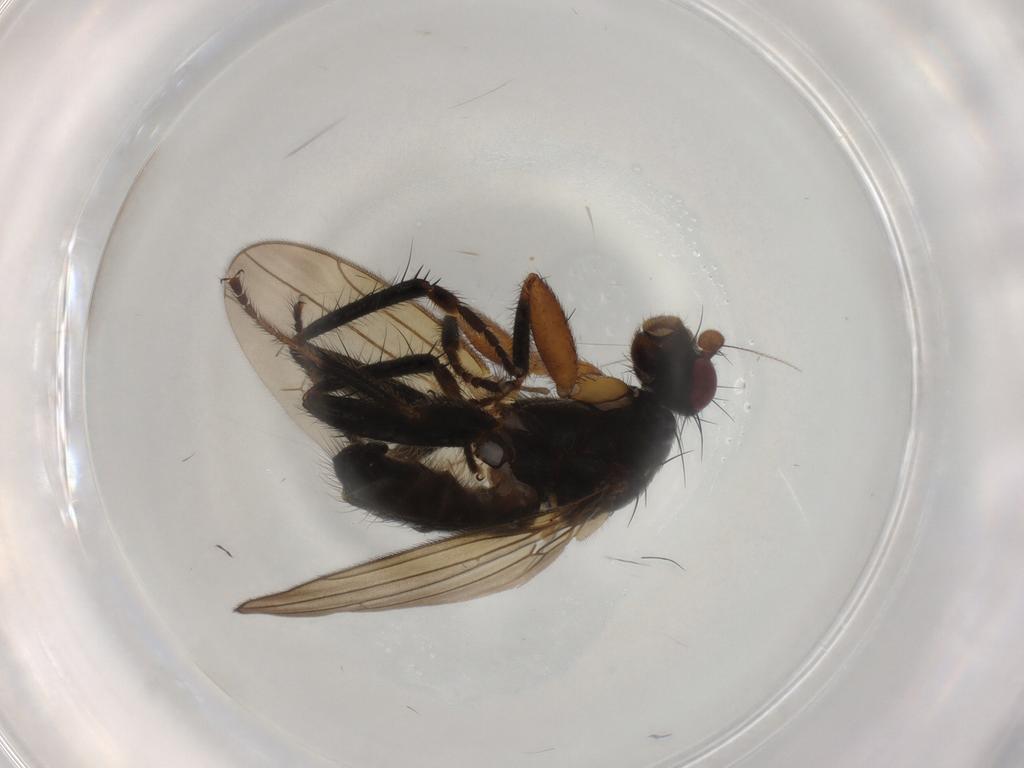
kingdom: Animalia
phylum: Arthropoda
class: Insecta
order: Diptera
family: Sphaeroceridae
